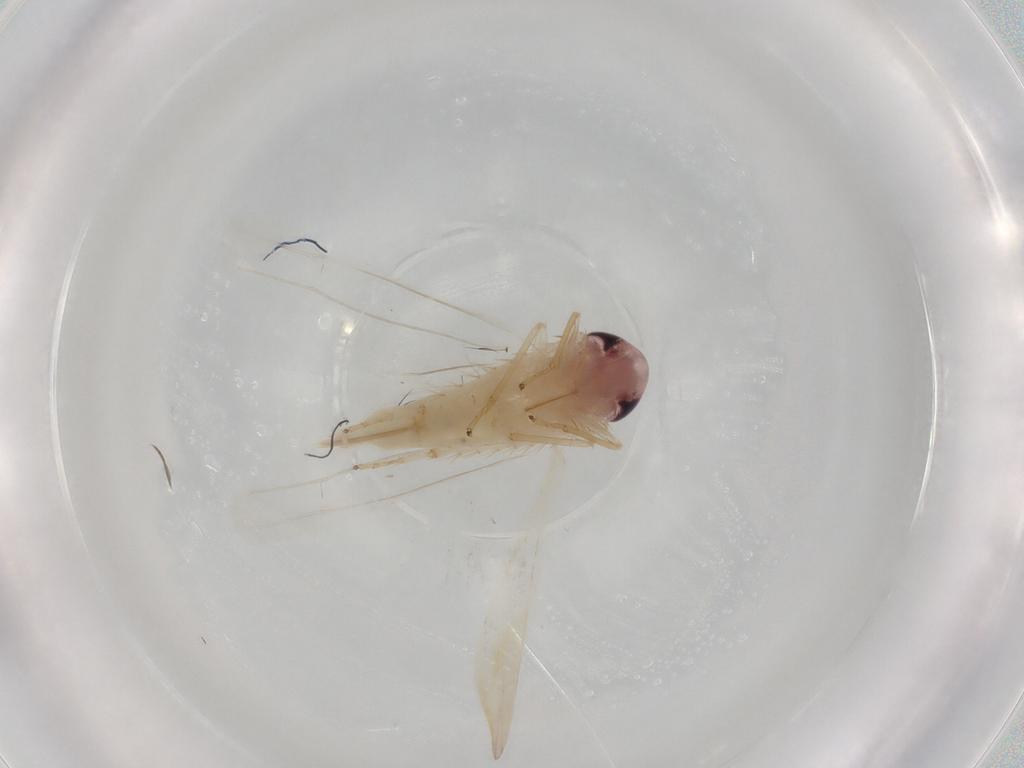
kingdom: Animalia
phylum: Arthropoda
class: Insecta
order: Hemiptera
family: Cicadellidae
